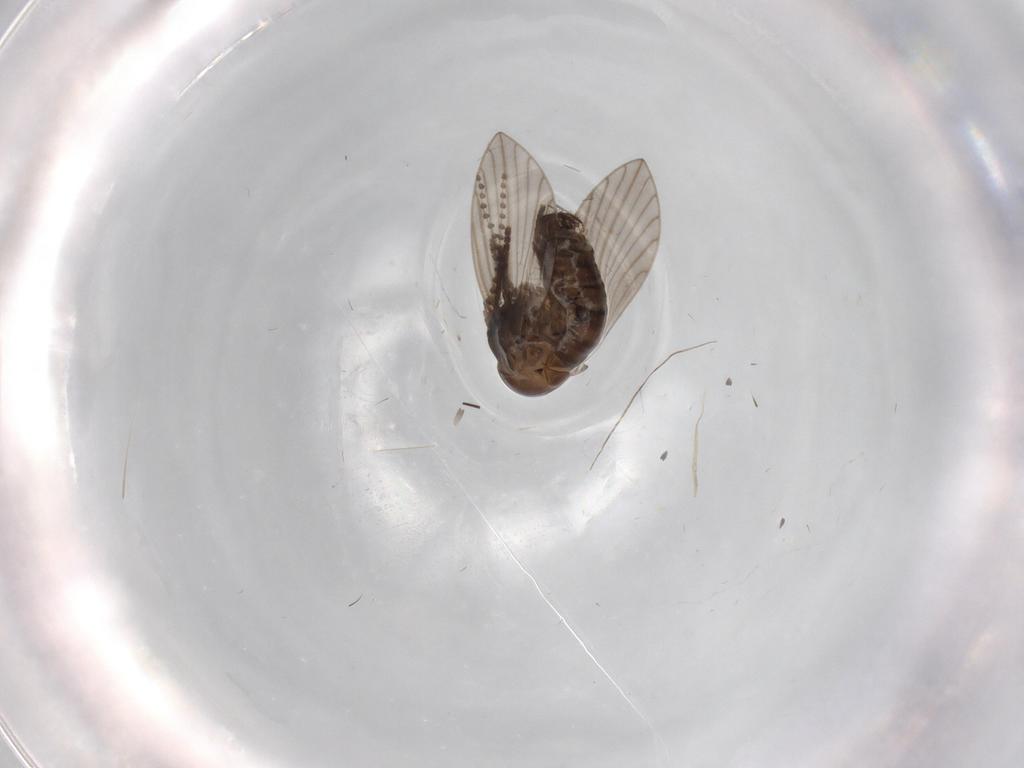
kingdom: Animalia
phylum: Arthropoda
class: Insecta
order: Diptera
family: Psychodidae
